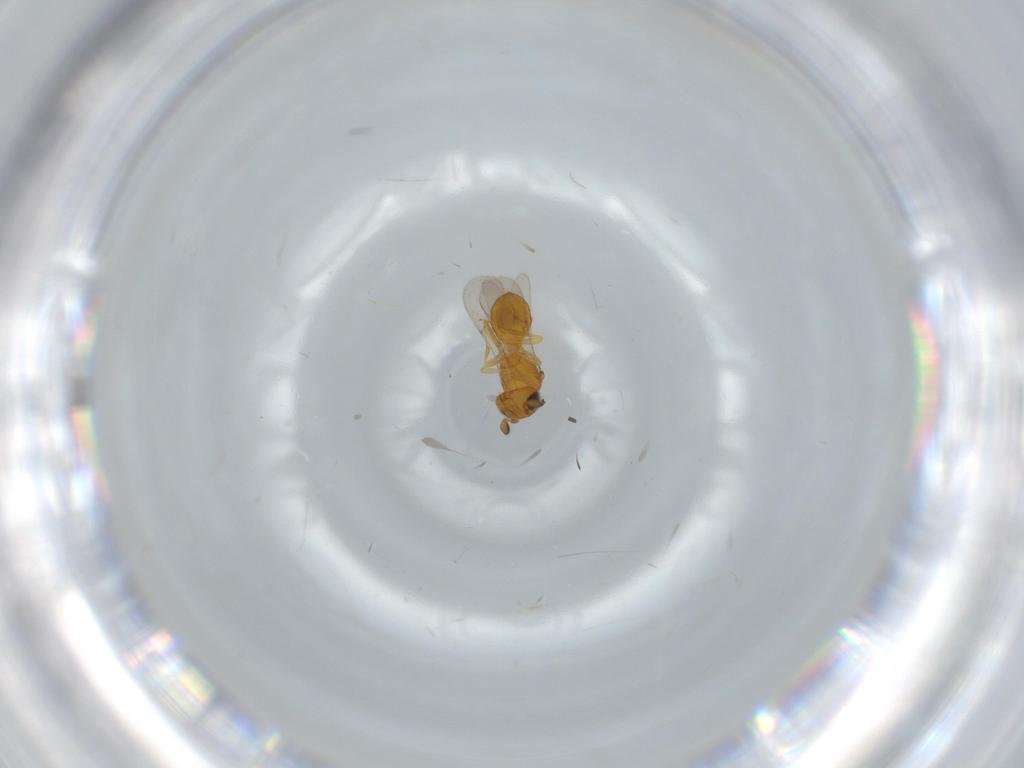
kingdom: Animalia
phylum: Arthropoda
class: Insecta
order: Hymenoptera
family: Scelionidae
